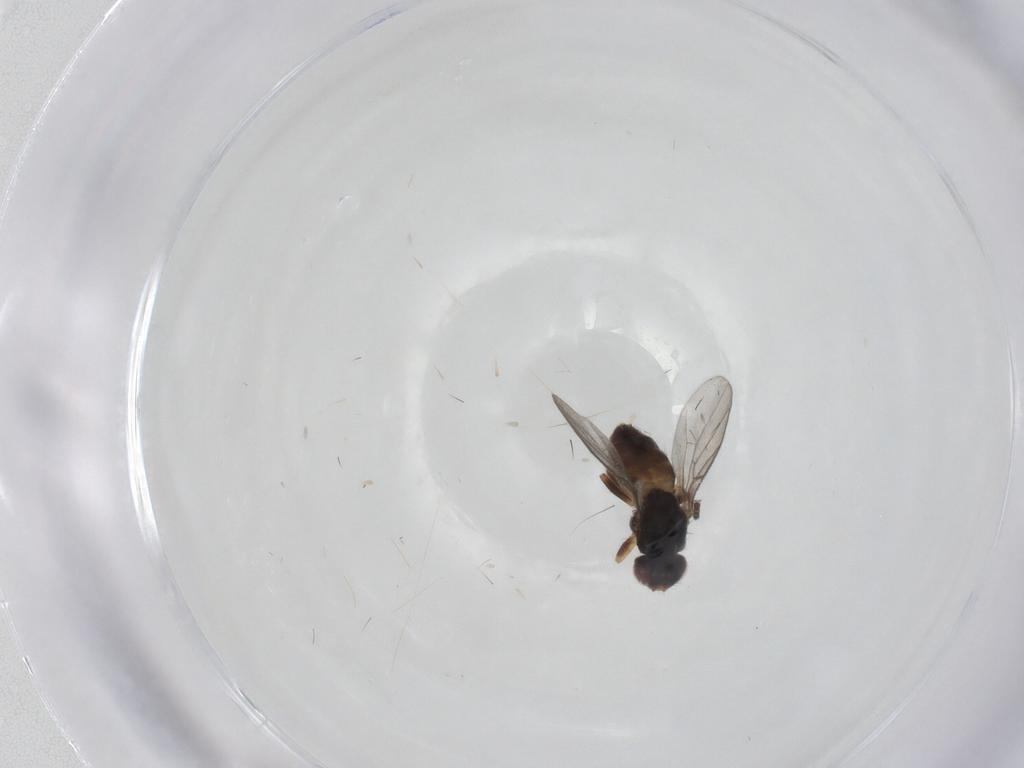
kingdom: Animalia
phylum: Arthropoda
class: Insecta
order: Diptera
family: Chloropidae
